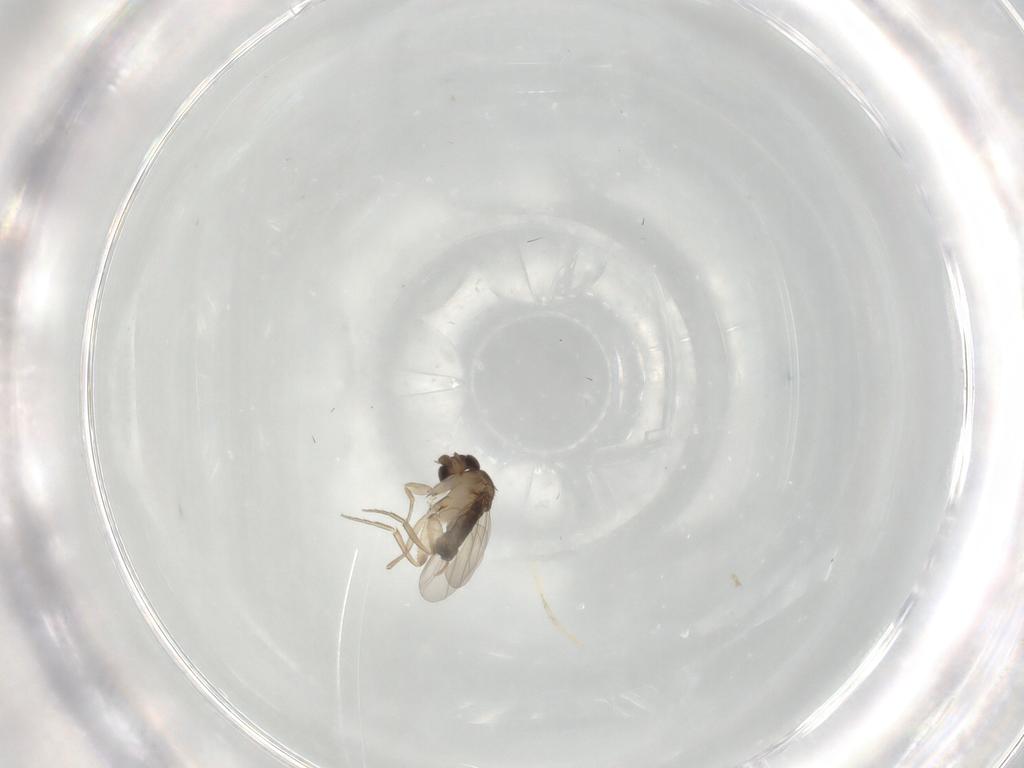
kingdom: Animalia
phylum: Arthropoda
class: Insecta
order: Diptera
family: Phoridae
